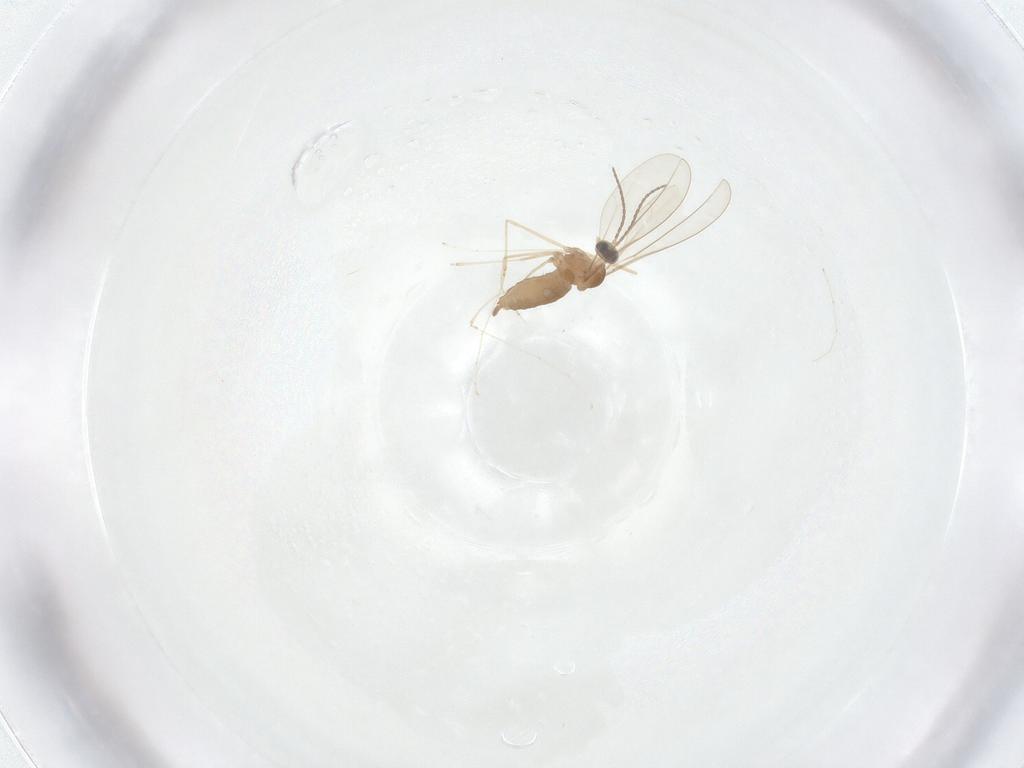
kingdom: Animalia
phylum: Arthropoda
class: Insecta
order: Diptera
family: Cecidomyiidae
